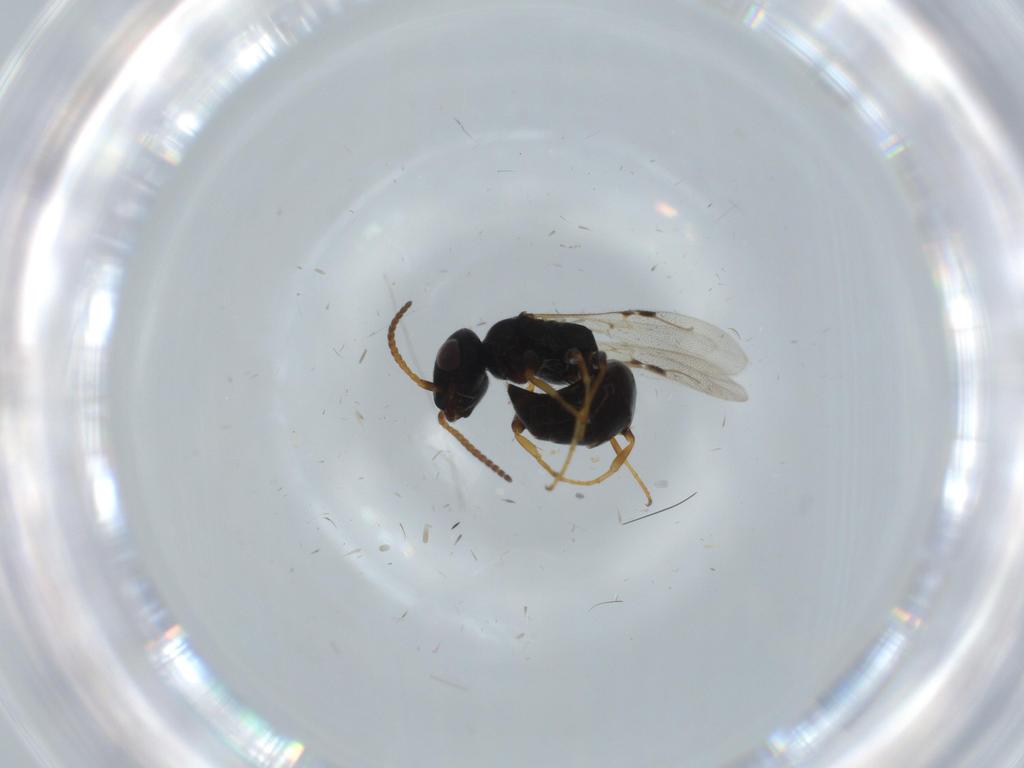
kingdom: Animalia
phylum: Arthropoda
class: Insecta
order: Hymenoptera
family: Bethylidae
